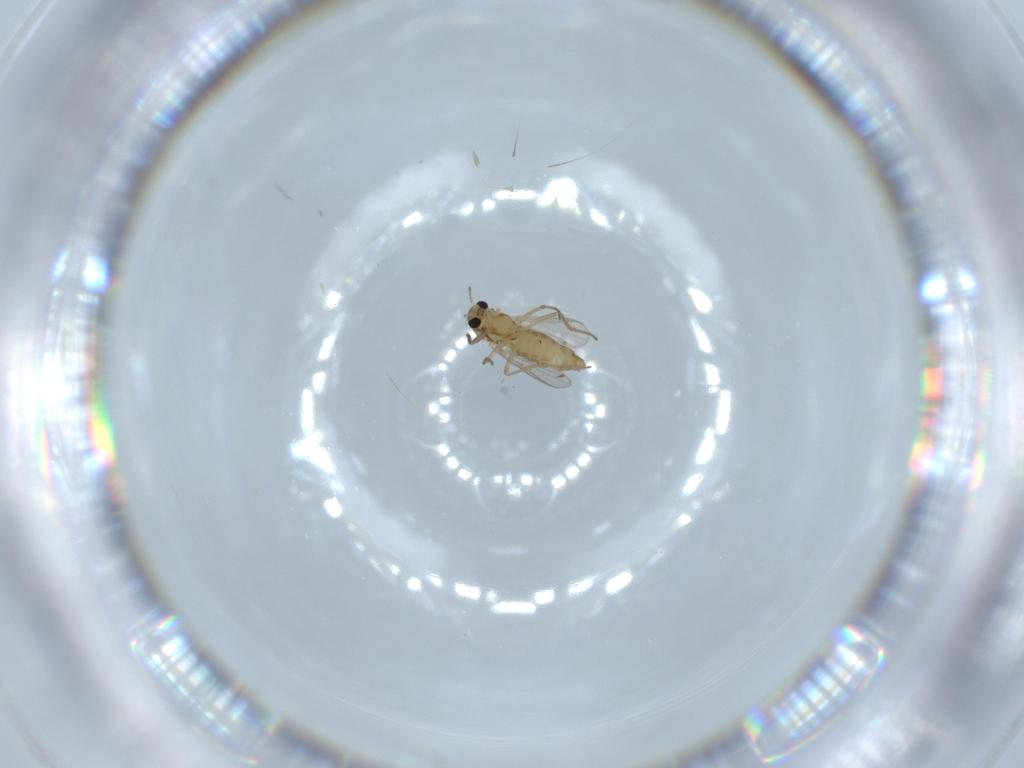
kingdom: Animalia
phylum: Arthropoda
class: Insecta
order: Diptera
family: Chironomidae
